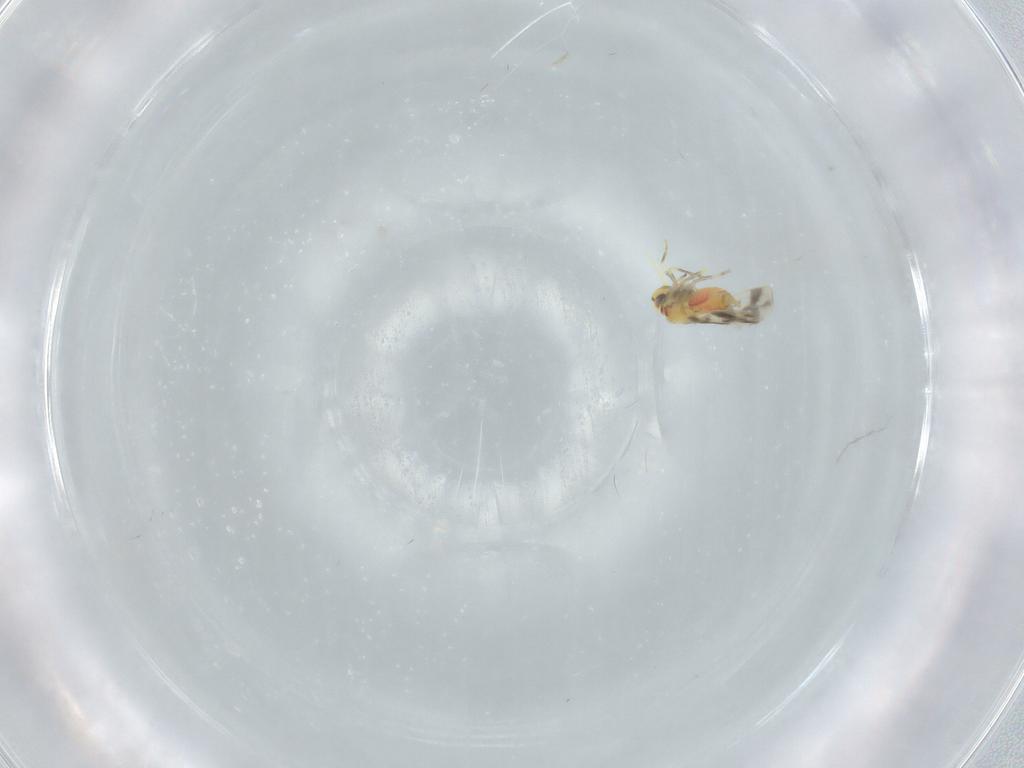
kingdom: Animalia
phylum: Arthropoda
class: Insecta
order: Hemiptera
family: Aleyrodidae
